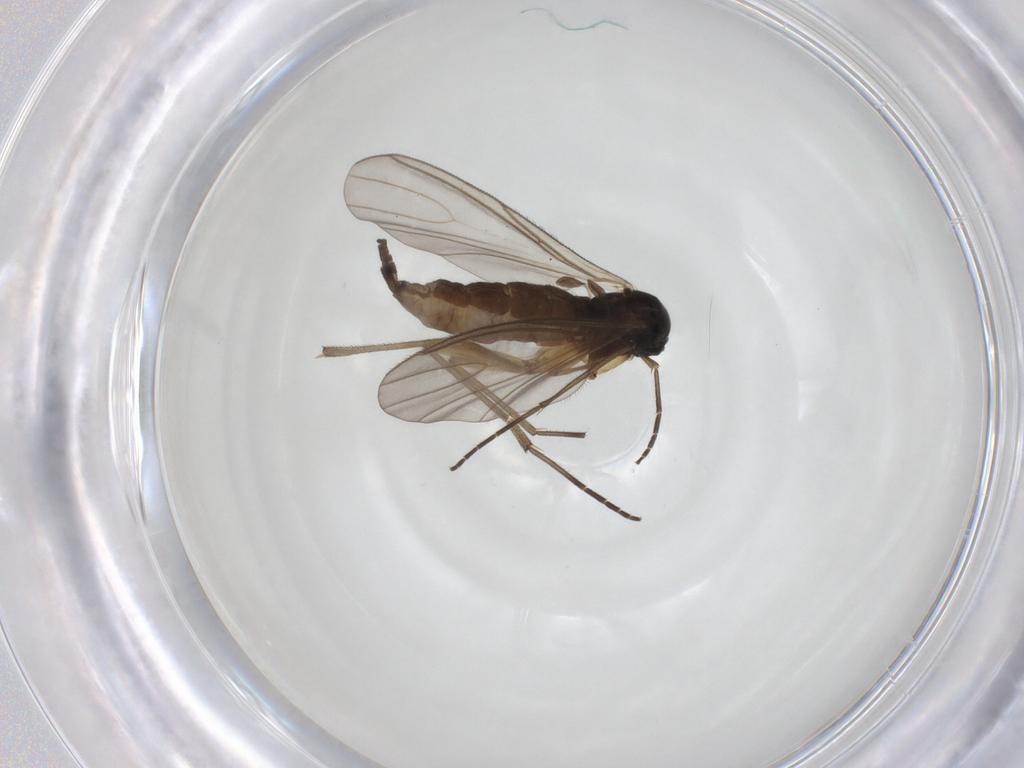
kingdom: Animalia
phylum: Arthropoda
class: Insecta
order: Diptera
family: Sciaridae
